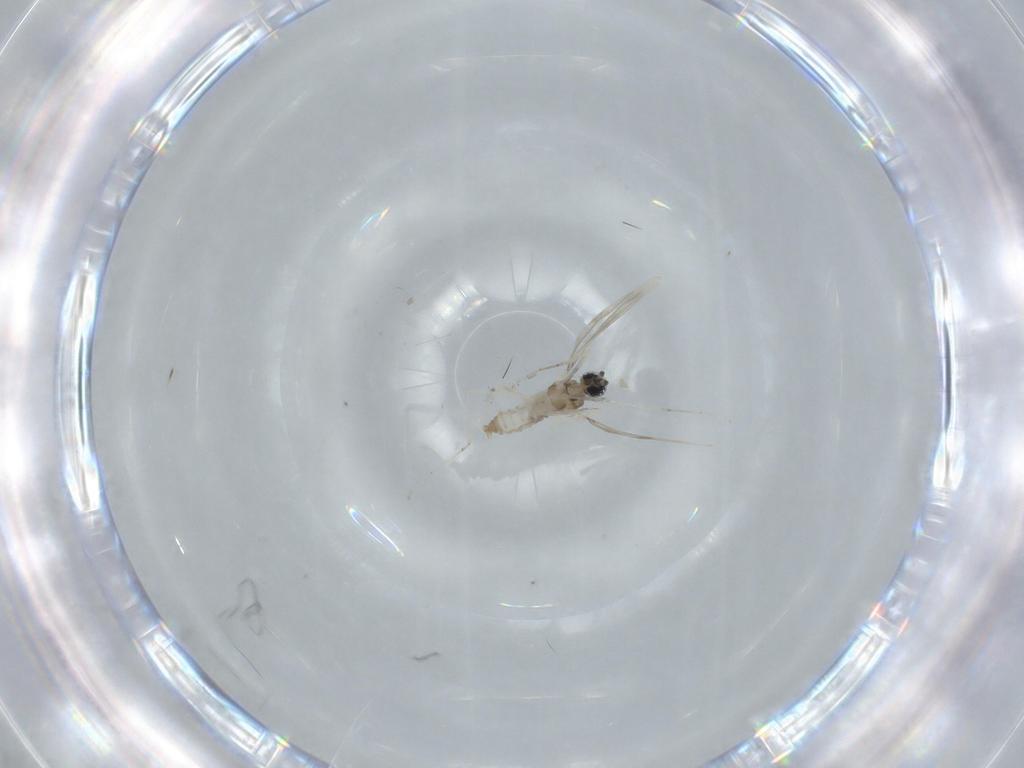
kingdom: Animalia
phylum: Arthropoda
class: Insecta
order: Diptera
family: Cecidomyiidae
